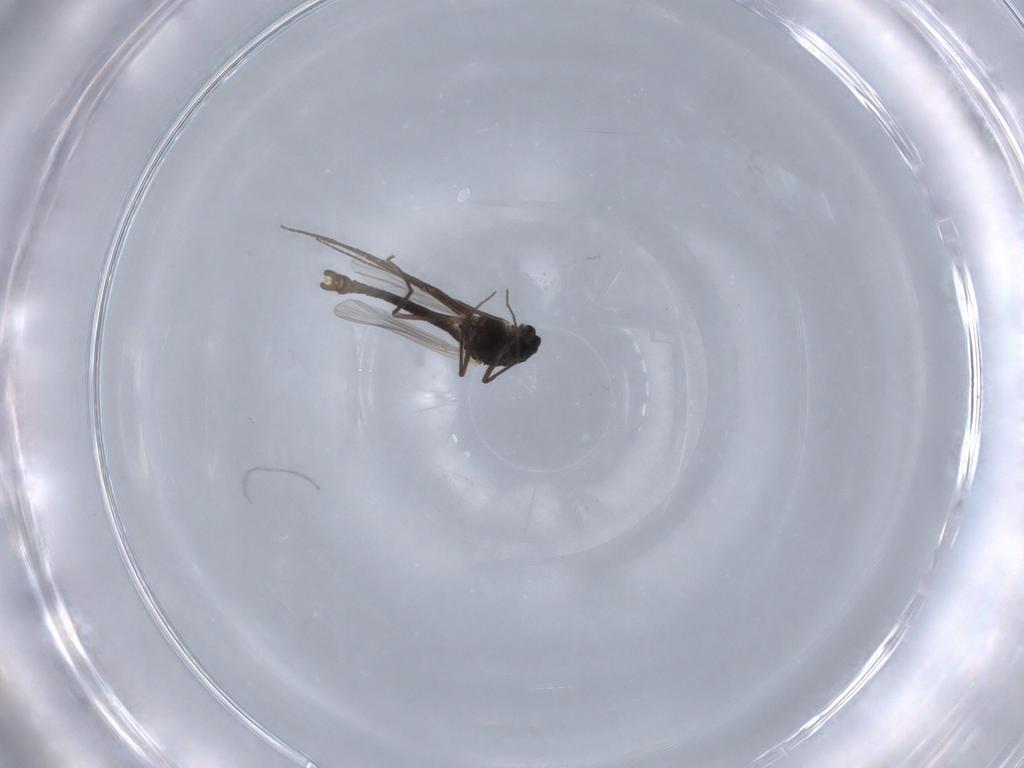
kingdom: Animalia
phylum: Arthropoda
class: Insecta
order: Diptera
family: Chironomidae
